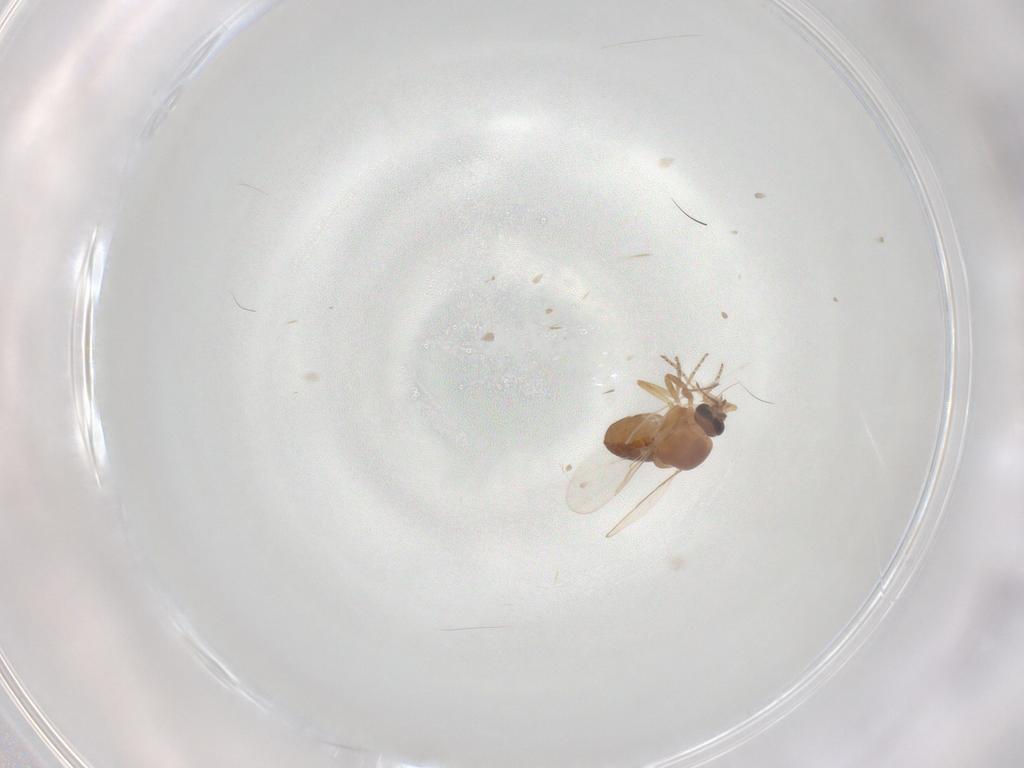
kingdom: Animalia
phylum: Arthropoda
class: Insecta
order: Diptera
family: Ceratopogonidae
